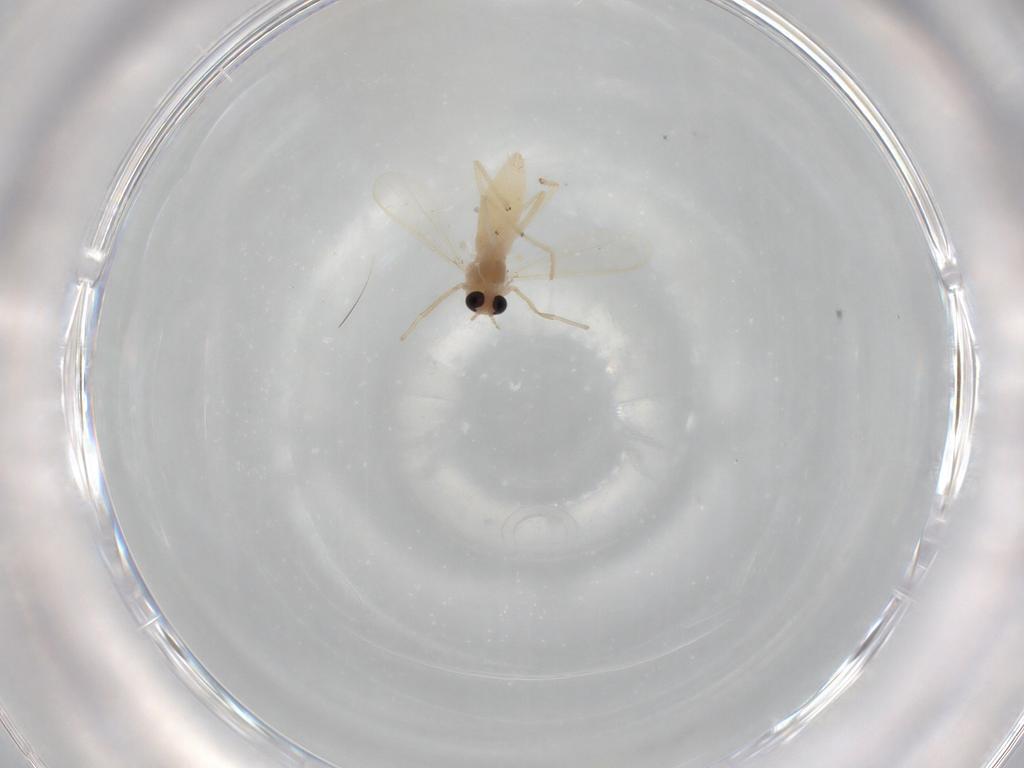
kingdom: Animalia
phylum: Arthropoda
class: Insecta
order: Diptera
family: Chironomidae
